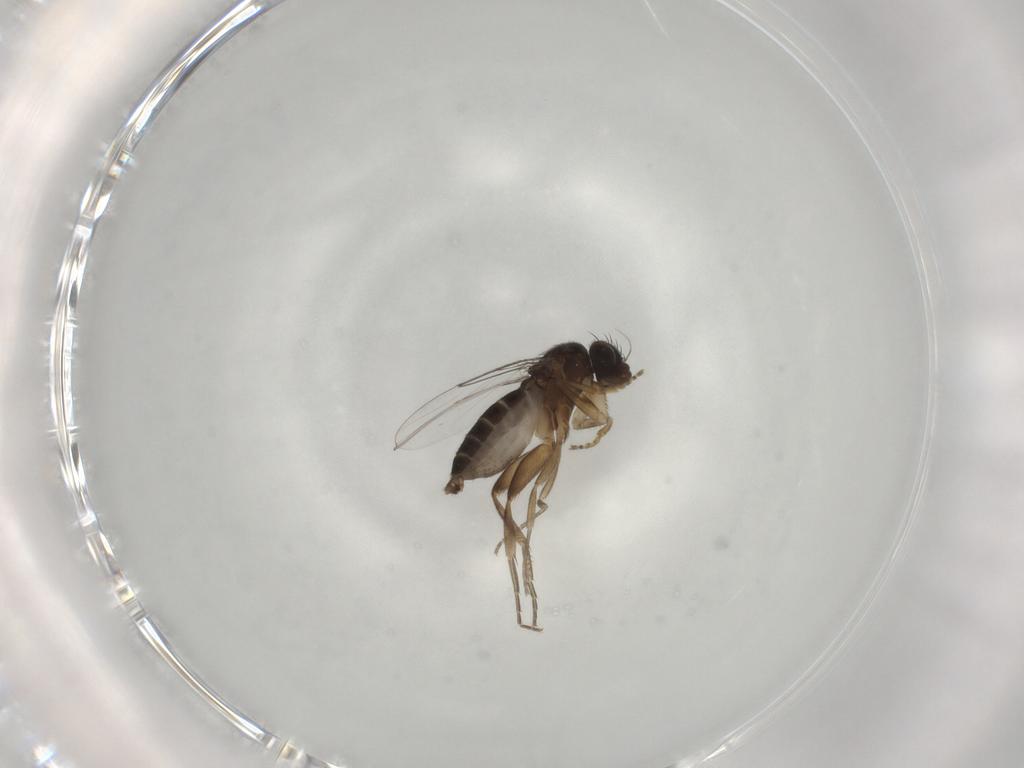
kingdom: Animalia
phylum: Arthropoda
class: Insecta
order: Diptera
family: Phoridae
